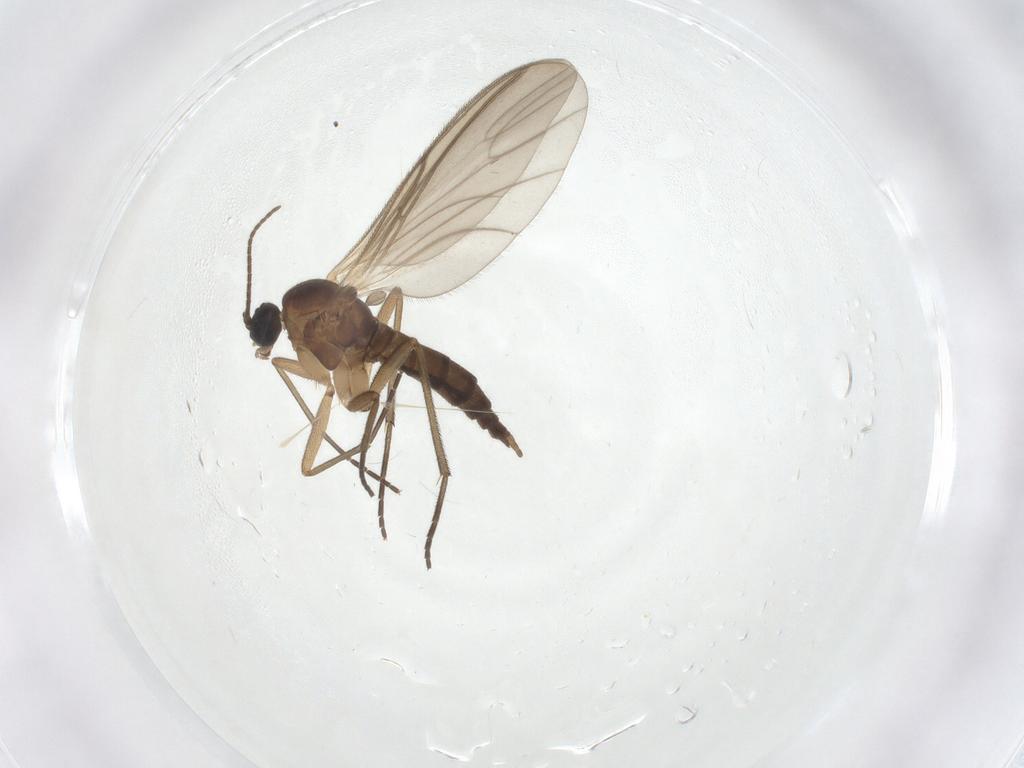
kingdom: Animalia
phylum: Arthropoda
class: Insecta
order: Diptera
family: Sciaridae
